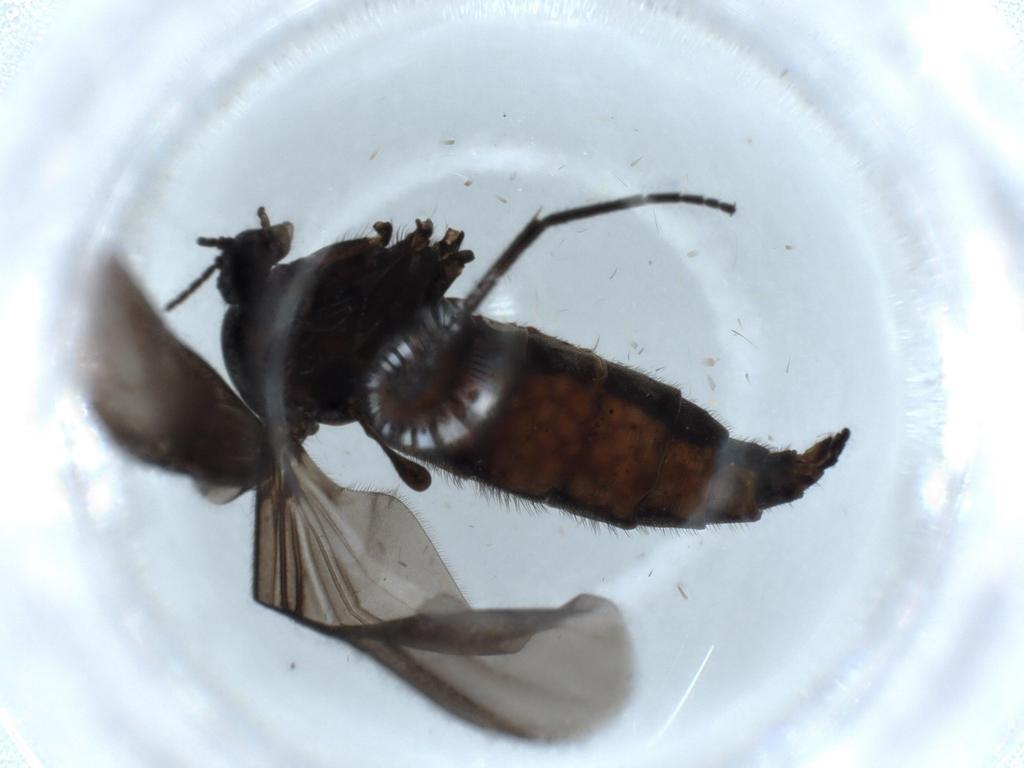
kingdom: Animalia
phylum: Arthropoda
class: Insecta
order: Diptera
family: Sciaridae
